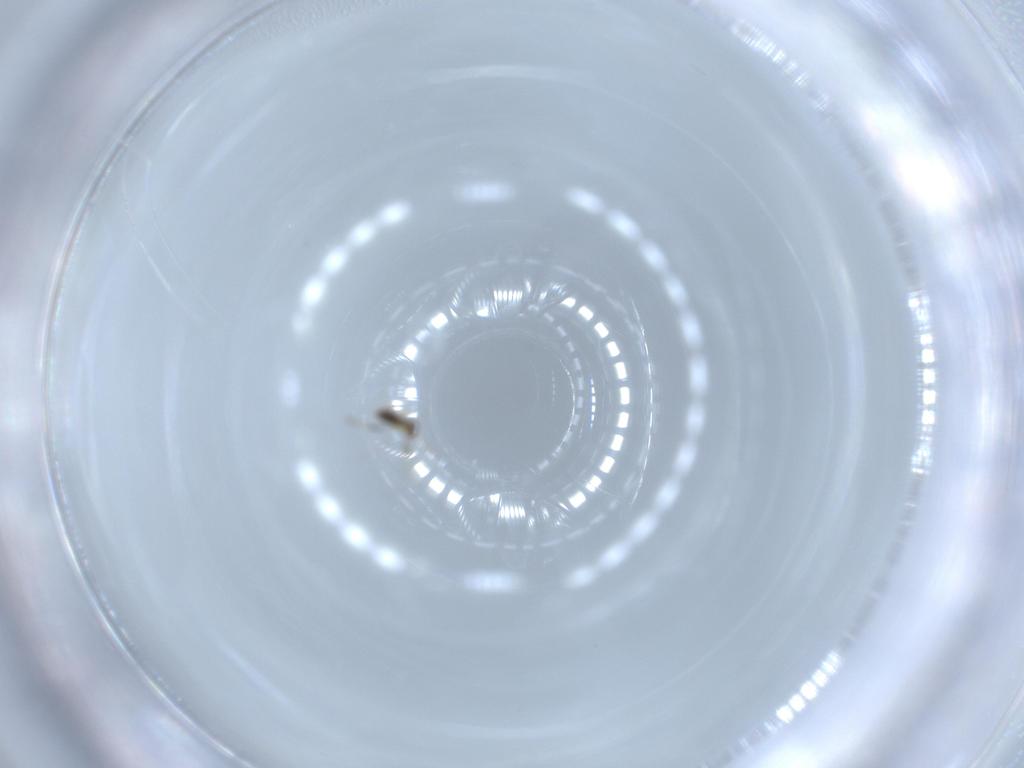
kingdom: Animalia
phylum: Arthropoda
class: Insecta
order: Hymenoptera
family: Aphelinidae
